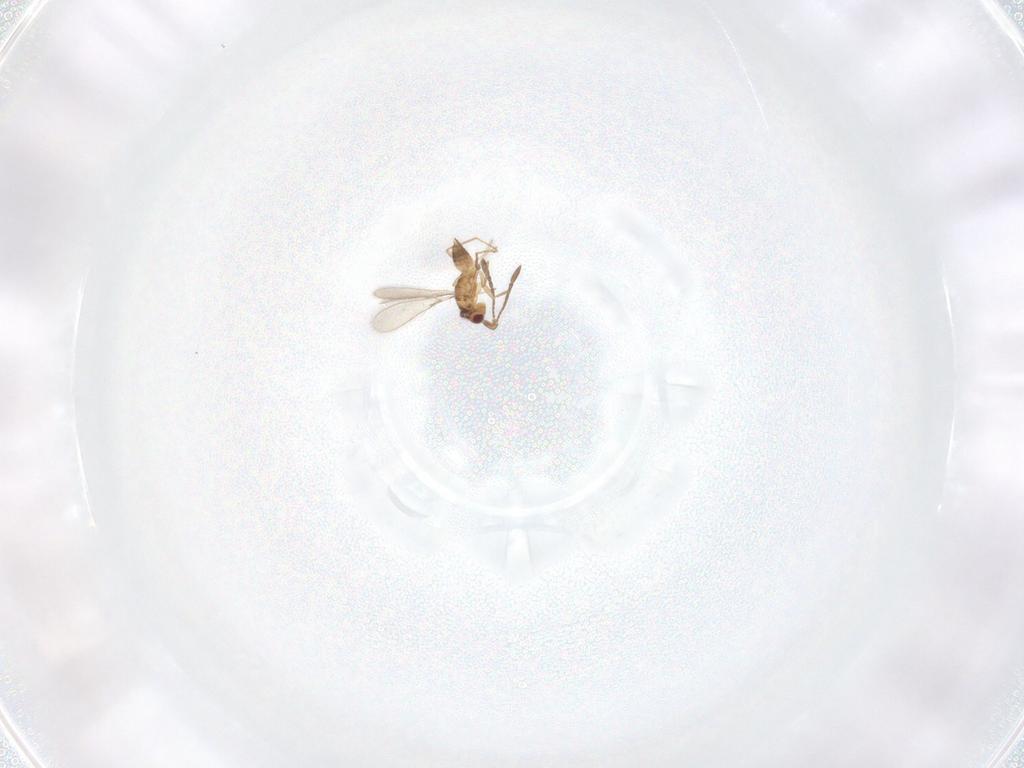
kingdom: Animalia
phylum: Arthropoda
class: Insecta
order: Hymenoptera
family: Mymaridae
